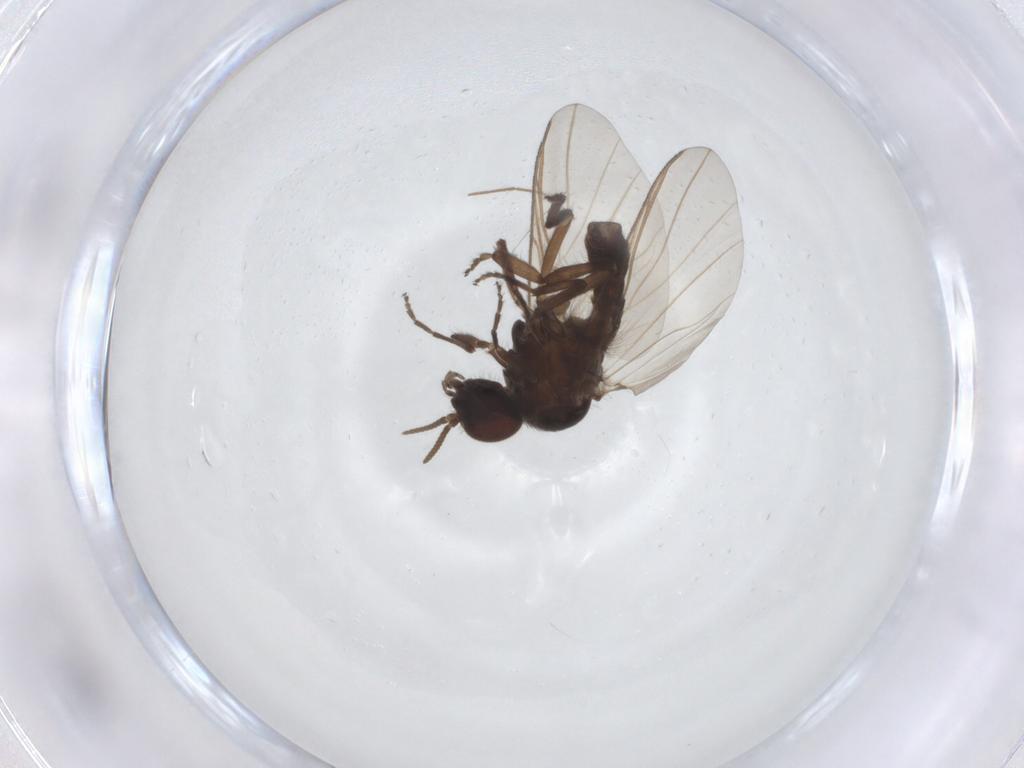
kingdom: Animalia
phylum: Arthropoda
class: Insecta
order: Diptera
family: Simuliidae
